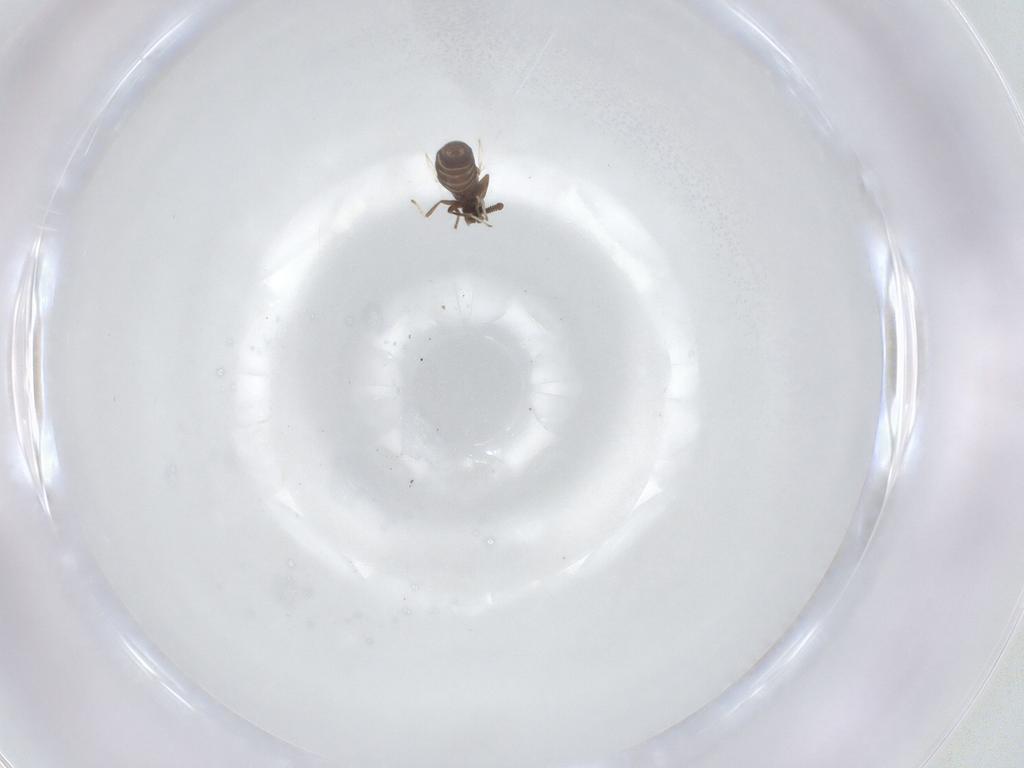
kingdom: Animalia
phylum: Arthropoda
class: Insecta
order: Diptera
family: Scatopsidae
